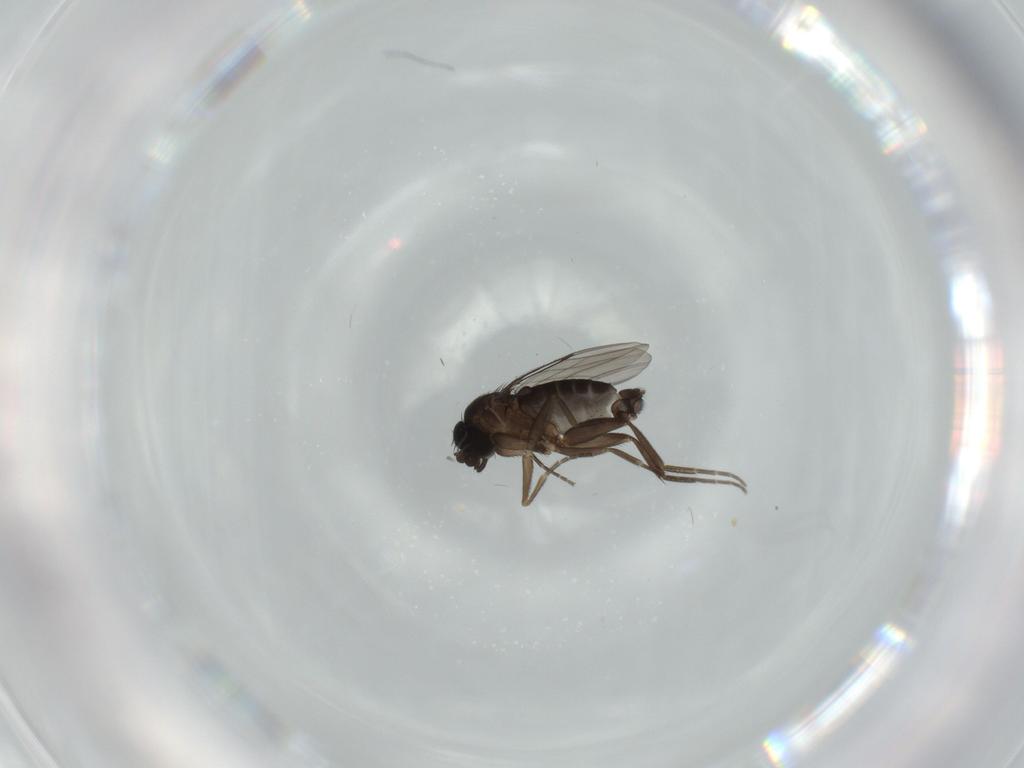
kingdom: Animalia
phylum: Arthropoda
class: Insecta
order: Diptera
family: Phoridae
